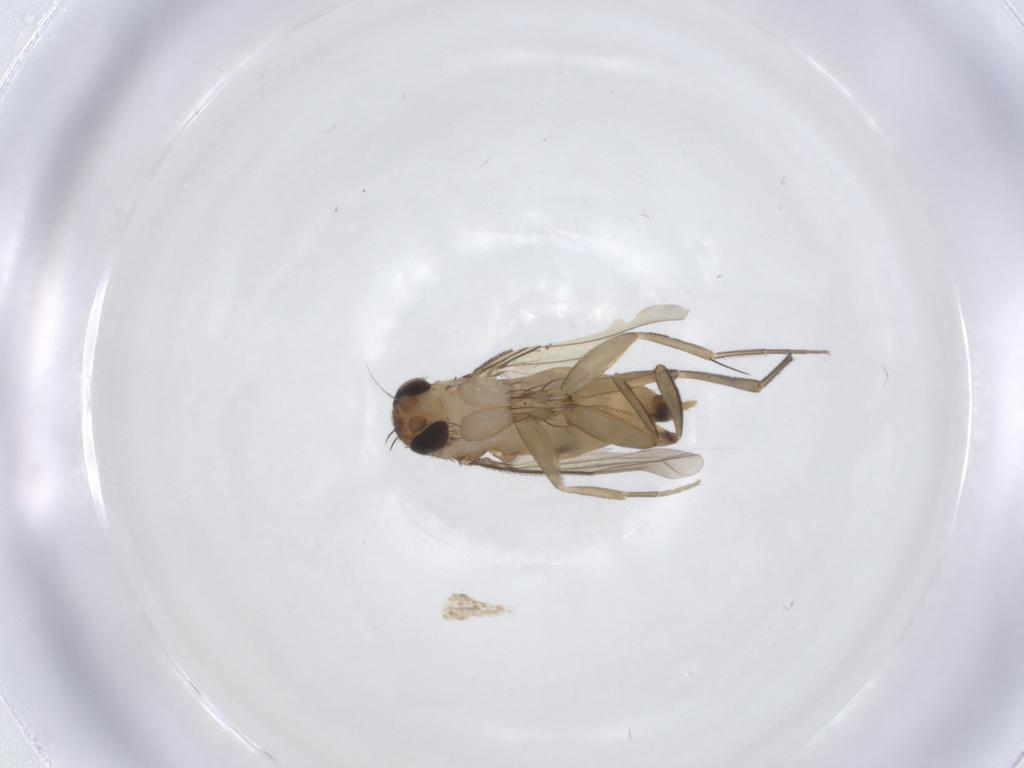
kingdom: Animalia
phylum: Arthropoda
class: Insecta
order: Diptera
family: Phoridae
